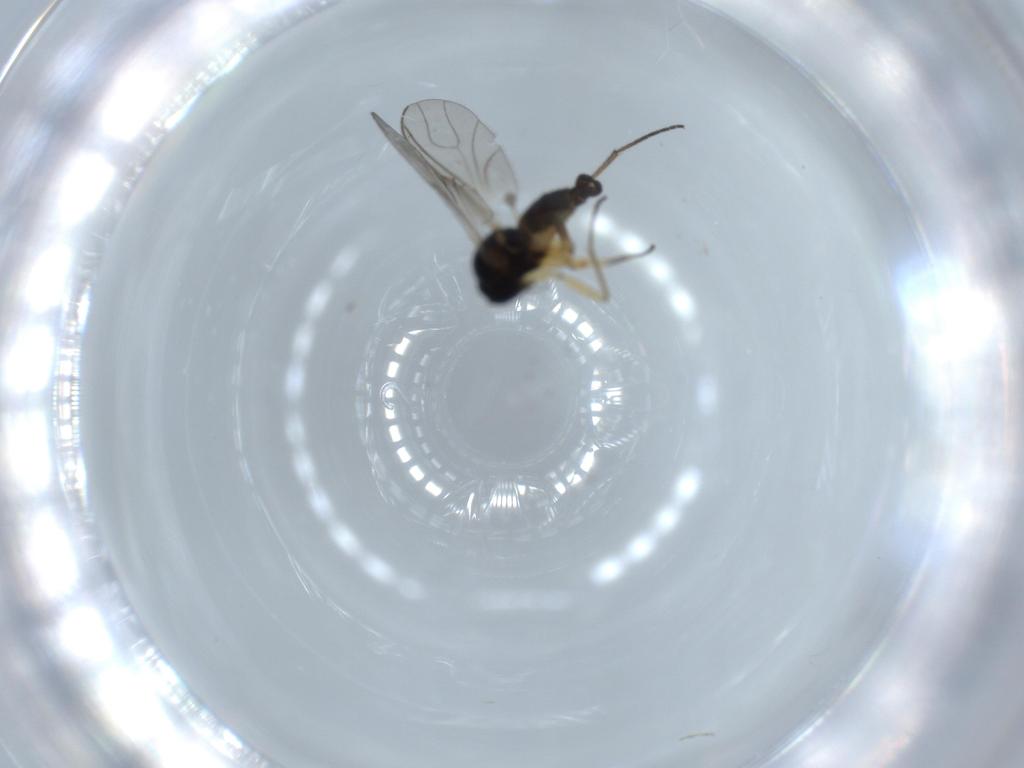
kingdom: Animalia
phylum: Arthropoda
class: Insecta
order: Diptera
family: Sciaridae
